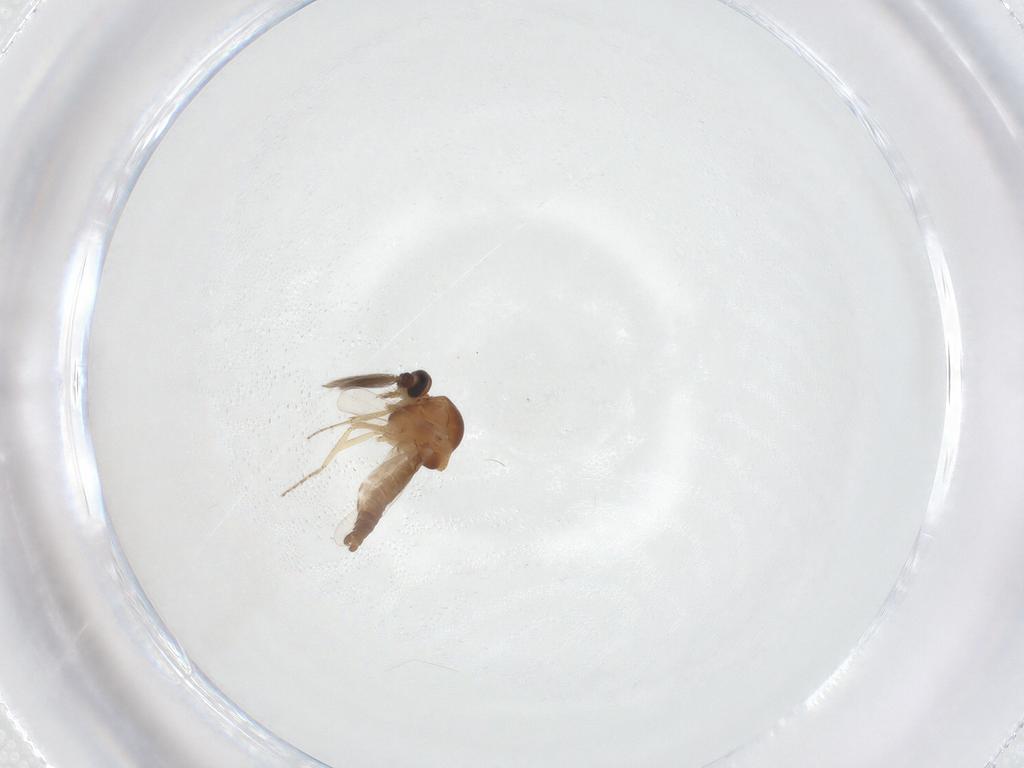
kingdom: Animalia
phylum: Arthropoda
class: Insecta
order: Diptera
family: Ceratopogonidae
